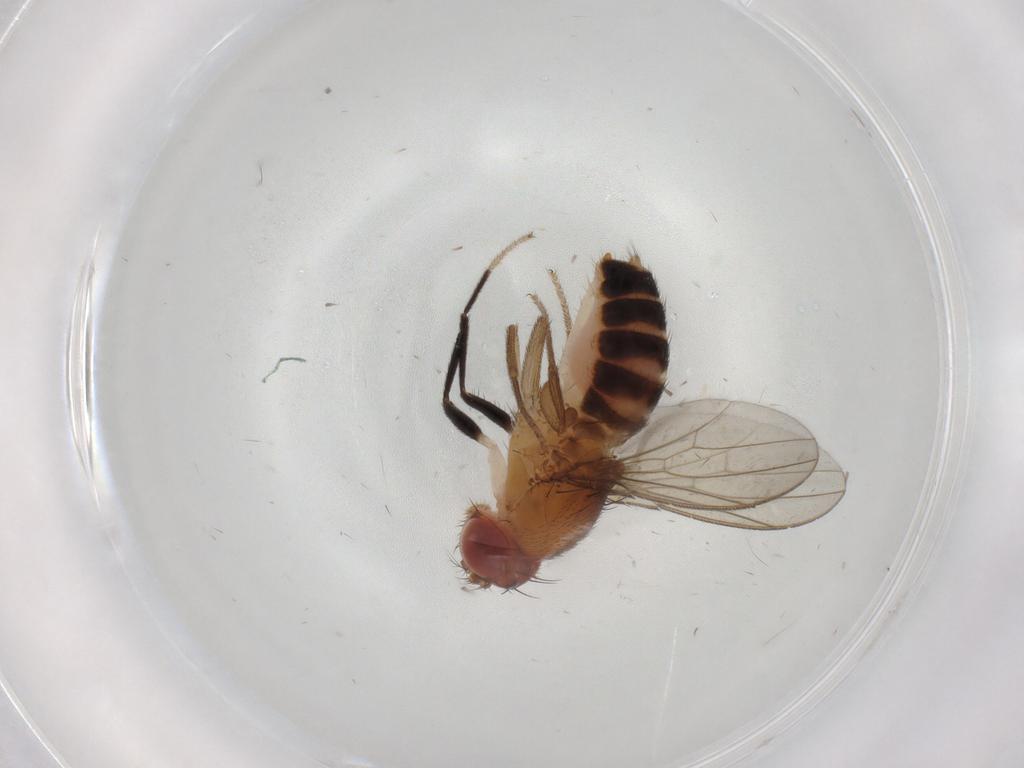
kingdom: Animalia
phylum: Arthropoda
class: Insecta
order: Diptera
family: Drosophilidae
